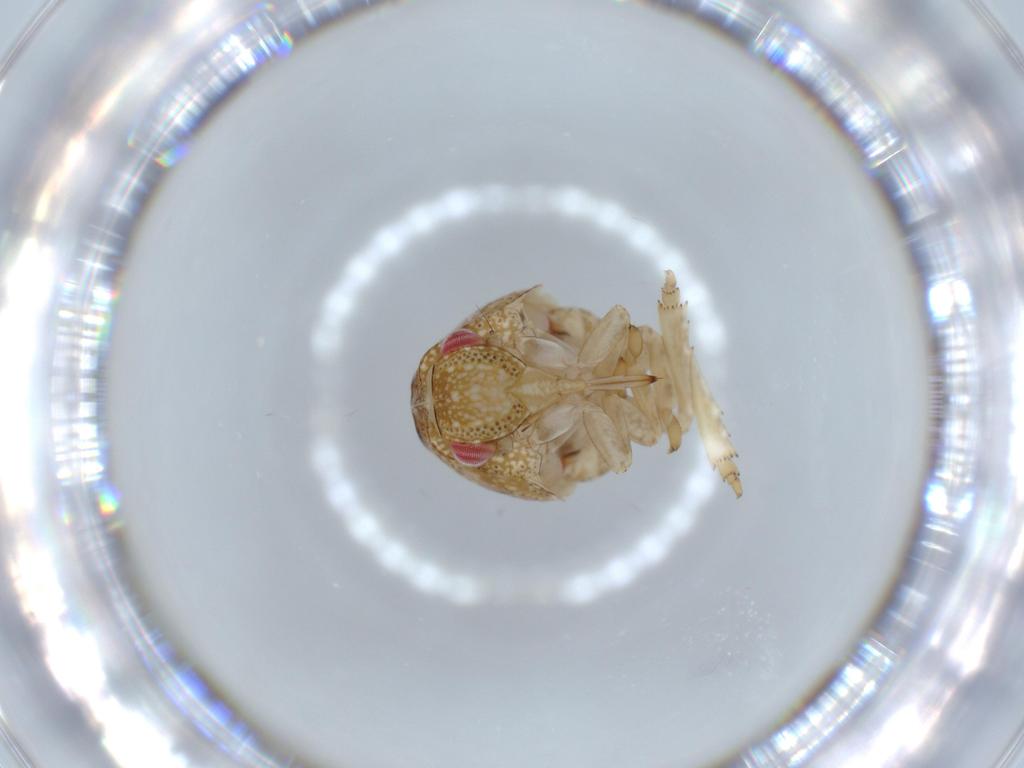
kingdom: Animalia
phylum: Arthropoda
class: Insecta
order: Hemiptera
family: Acanaloniidae
